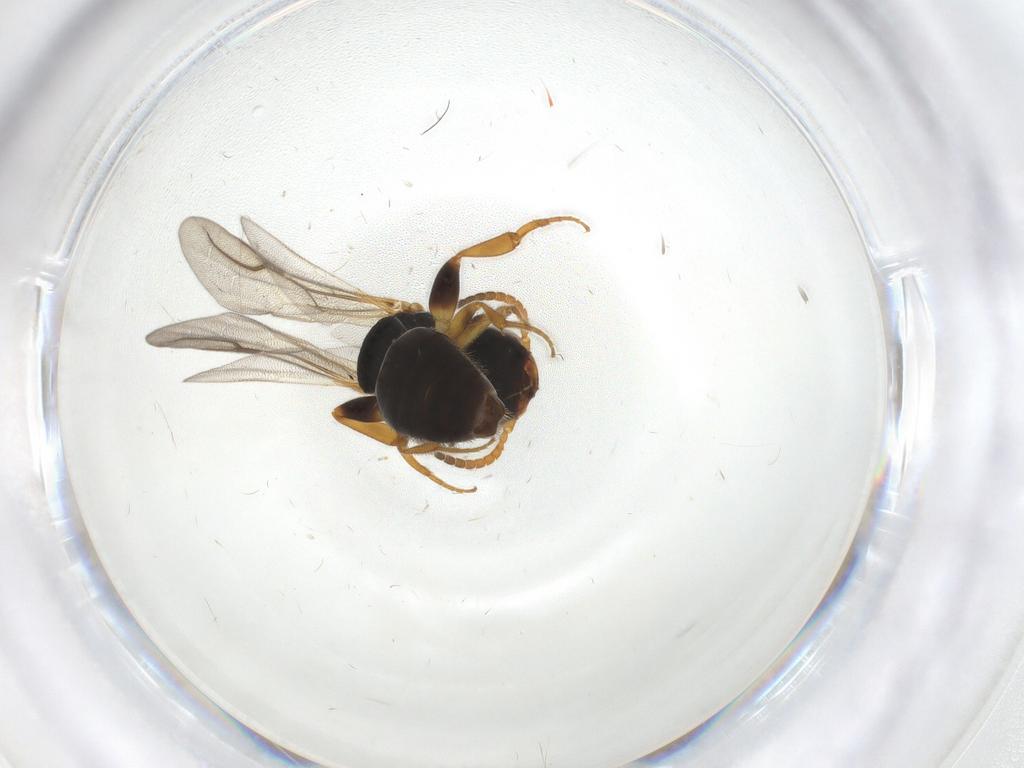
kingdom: Animalia
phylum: Arthropoda
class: Insecta
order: Hymenoptera
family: Bethylidae
